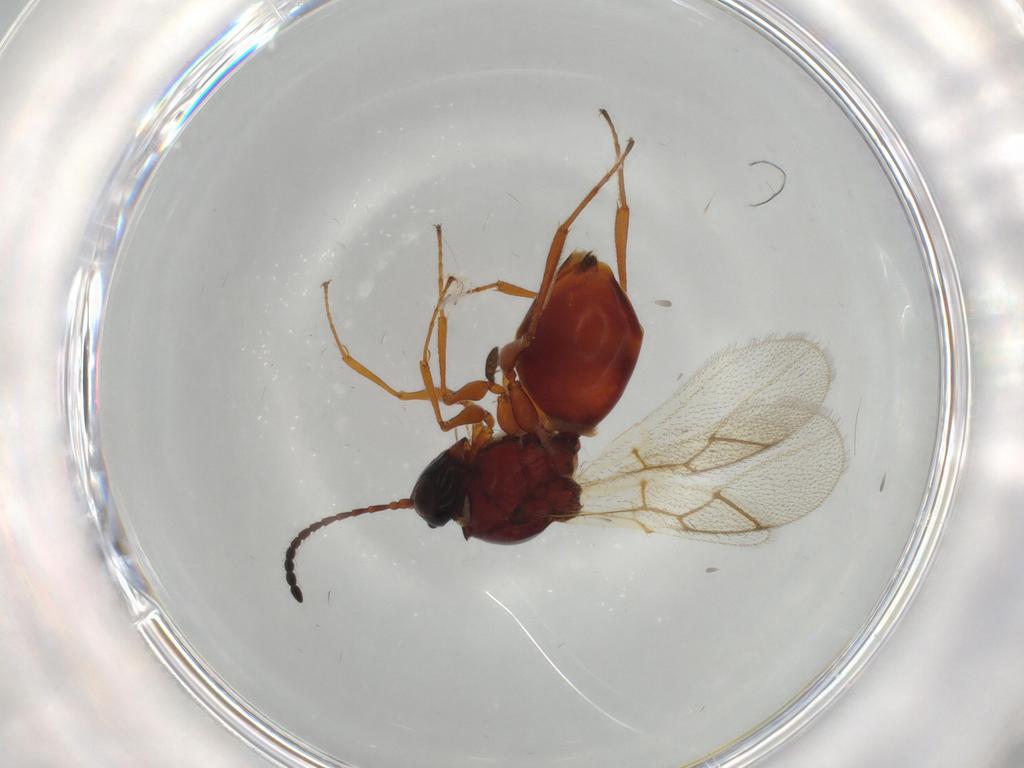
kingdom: Animalia
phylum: Arthropoda
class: Insecta
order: Hymenoptera
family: Figitidae
